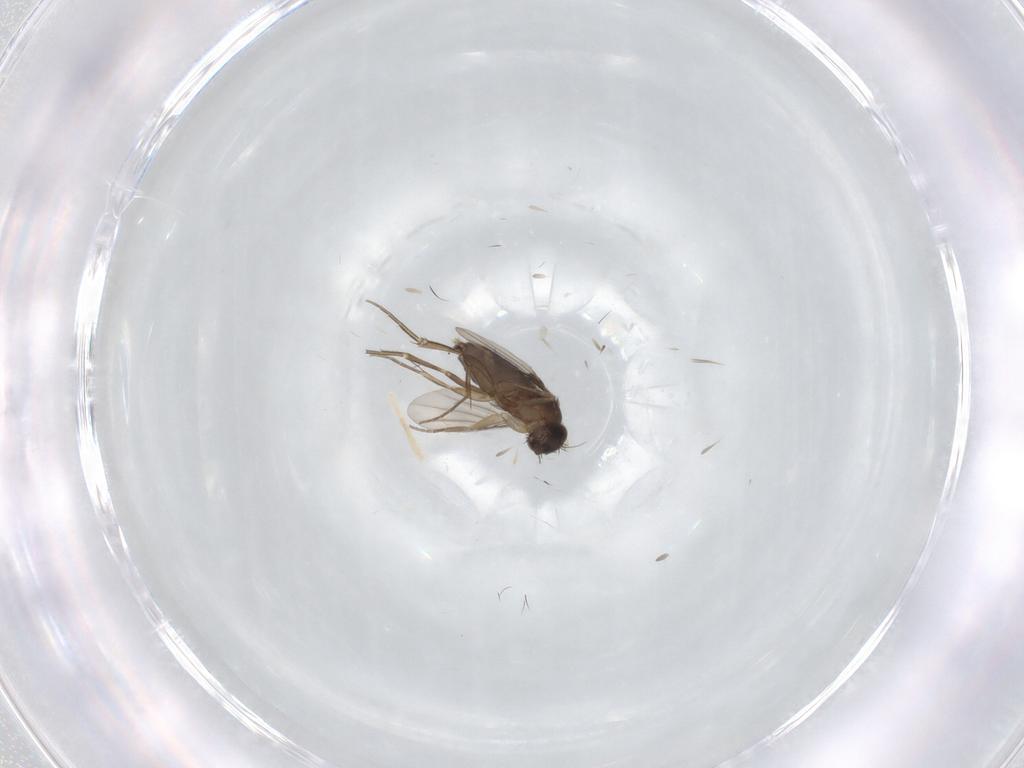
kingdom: Animalia
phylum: Arthropoda
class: Insecta
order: Diptera
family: Phoridae
